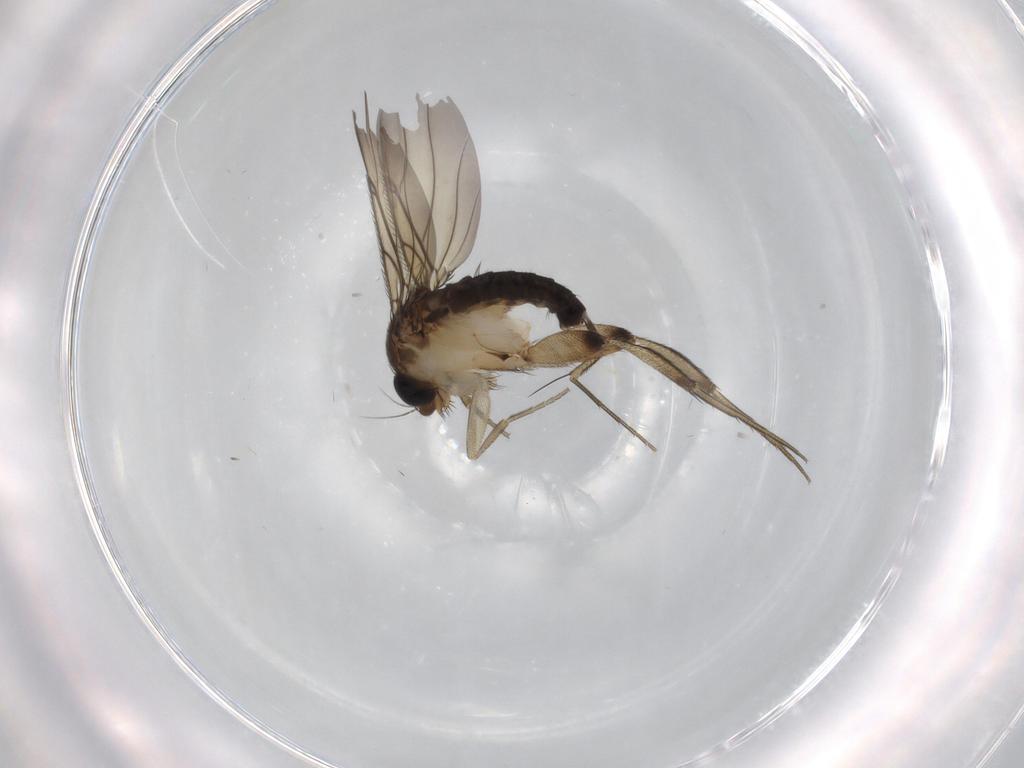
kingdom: Animalia
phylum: Arthropoda
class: Insecta
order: Diptera
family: Phoridae
